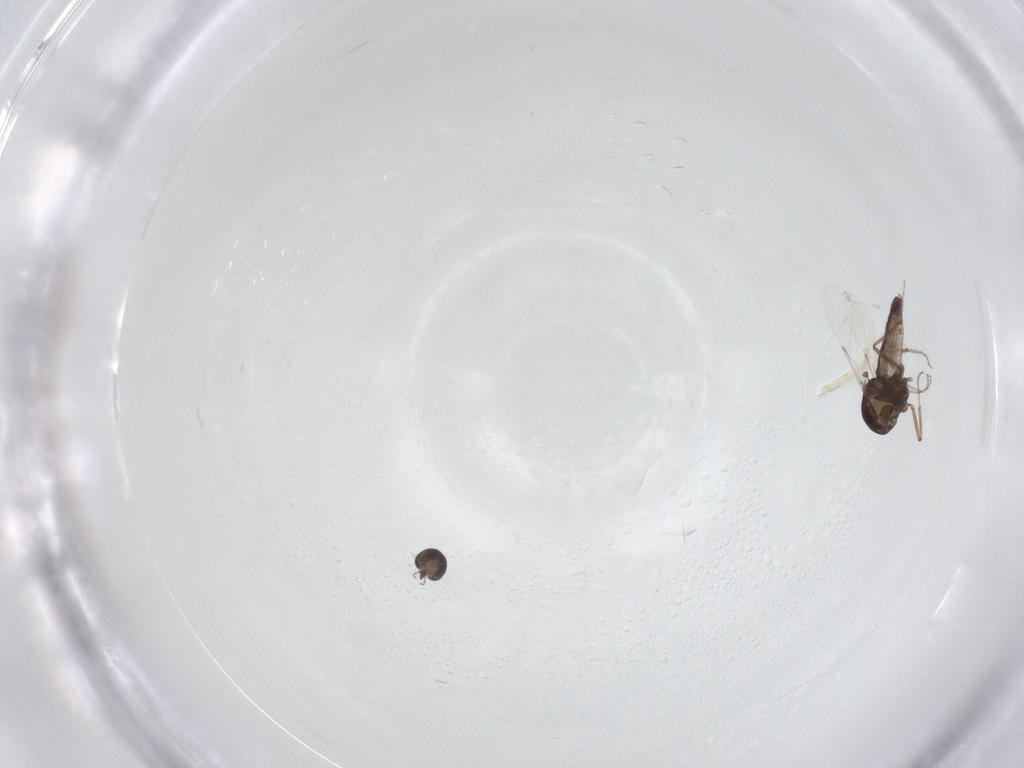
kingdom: Animalia
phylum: Arthropoda
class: Insecta
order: Diptera
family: Ceratopogonidae
